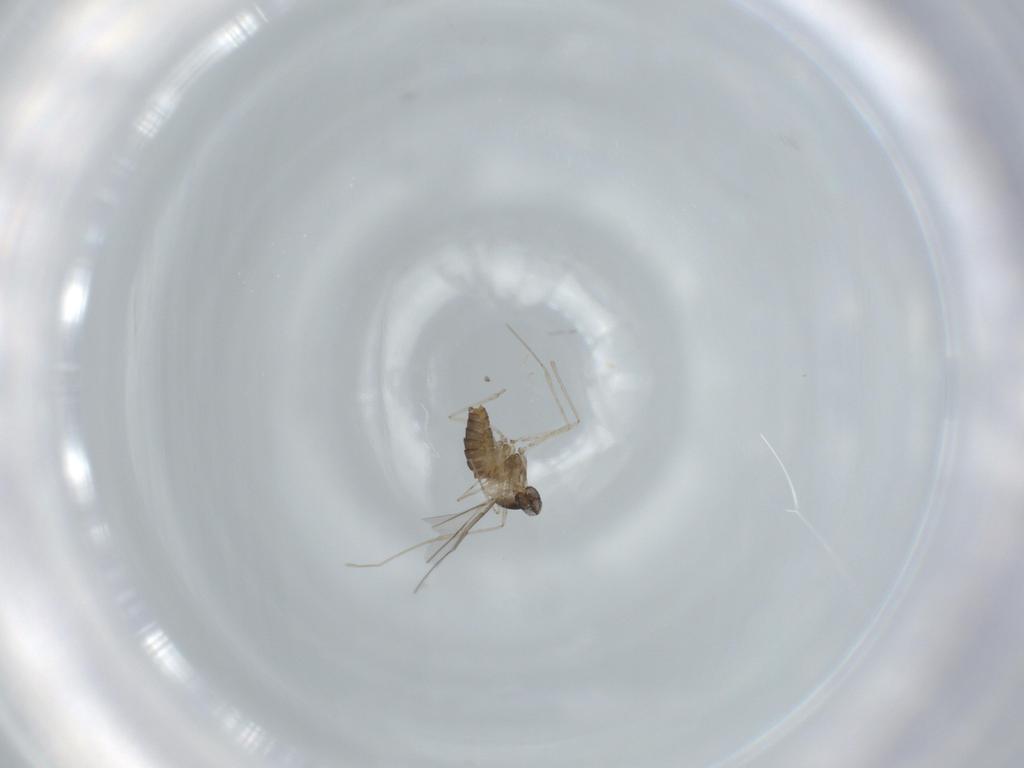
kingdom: Animalia
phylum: Arthropoda
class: Insecta
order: Diptera
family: Cecidomyiidae
